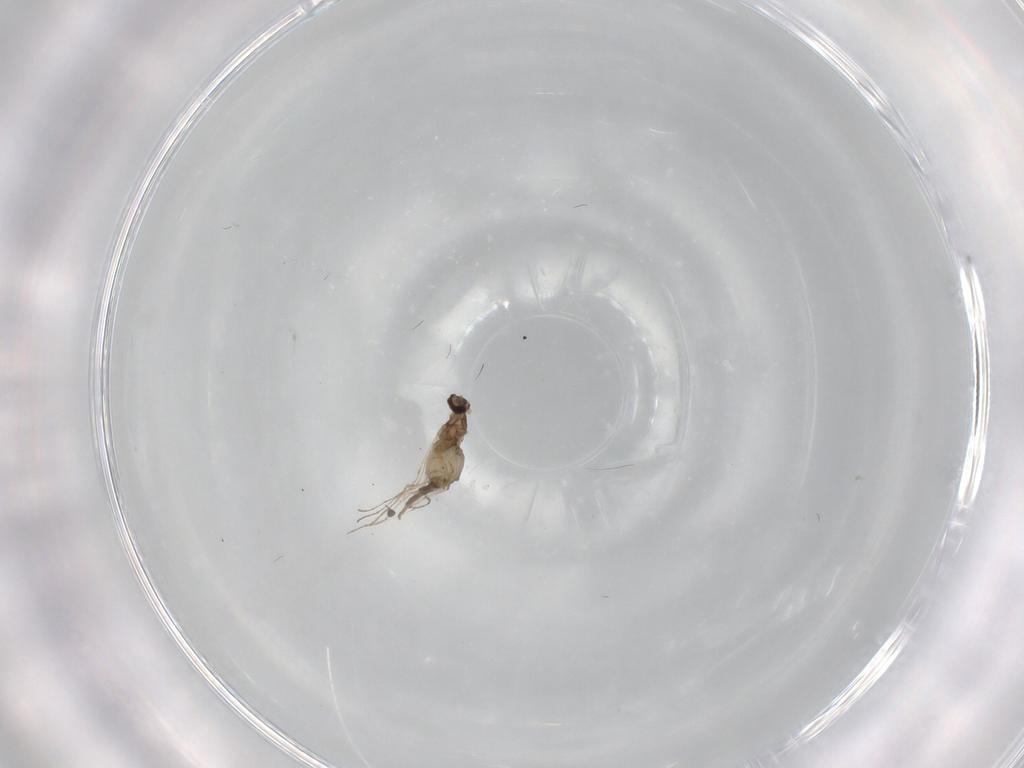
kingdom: Animalia
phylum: Arthropoda
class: Insecta
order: Diptera
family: Cecidomyiidae
